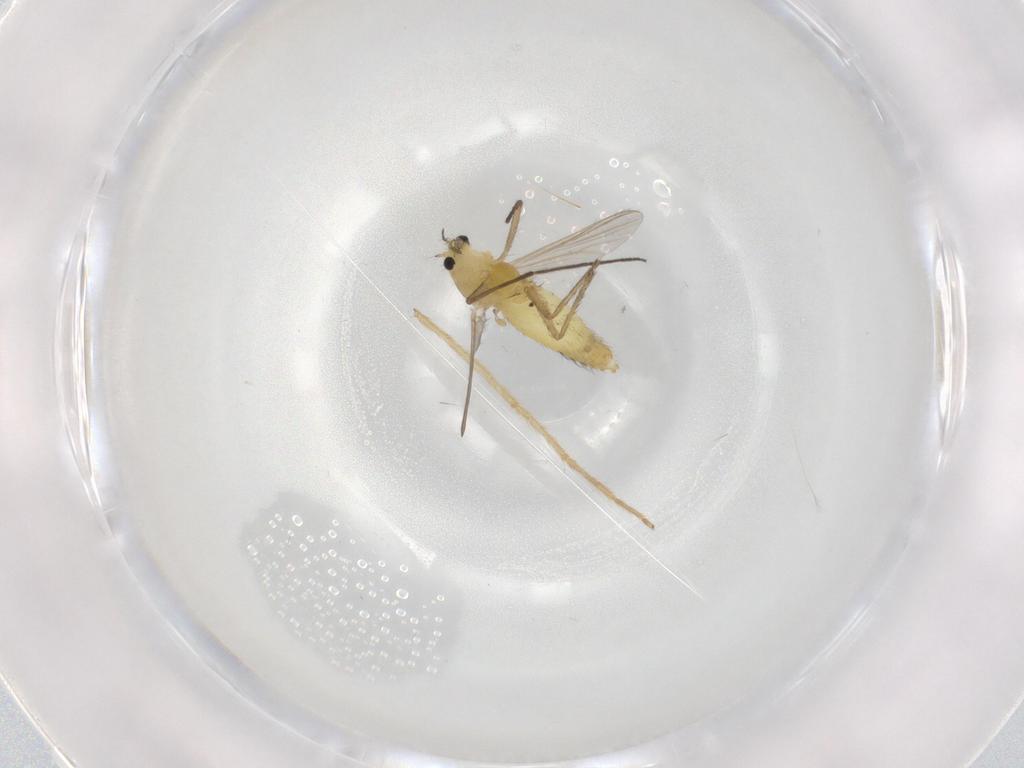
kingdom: Animalia
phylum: Arthropoda
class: Insecta
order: Diptera
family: Chironomidae
